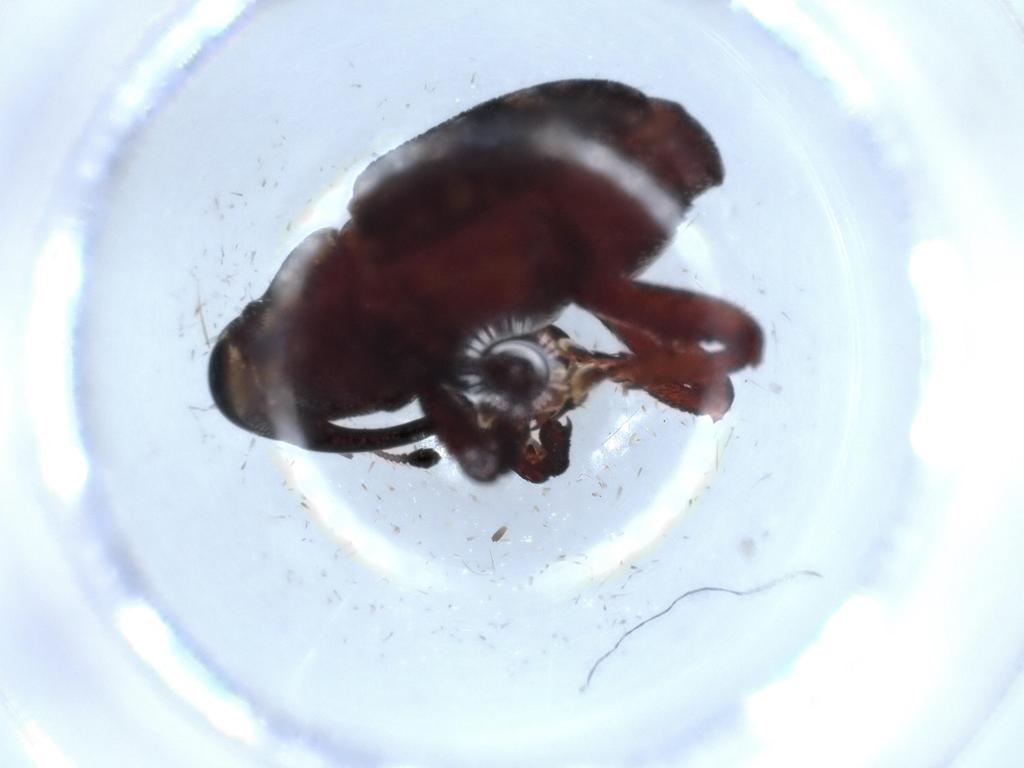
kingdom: Animalia
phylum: Arthropoda
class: Insecta
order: Coleoptera
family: Curculionidae
